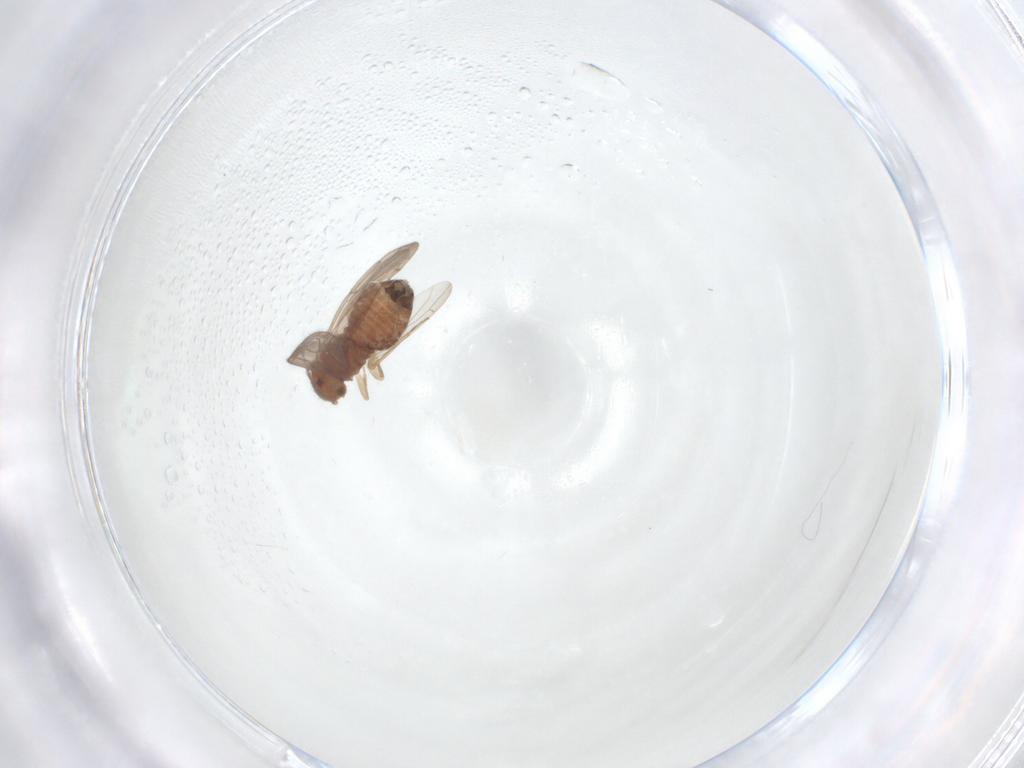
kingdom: Animalia
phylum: Arthropoda
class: Insecta
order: Psocodea
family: Ectopsocidae
